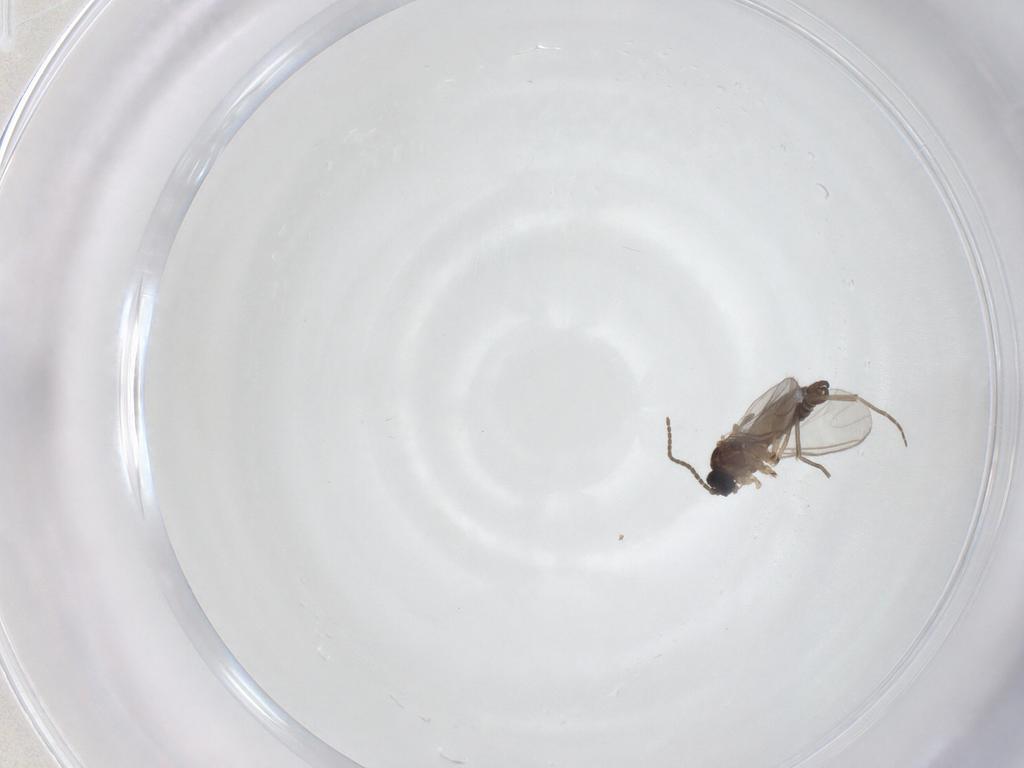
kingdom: Animalia
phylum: Arthropoda
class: Insecta
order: Diptera
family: Sciaridae
